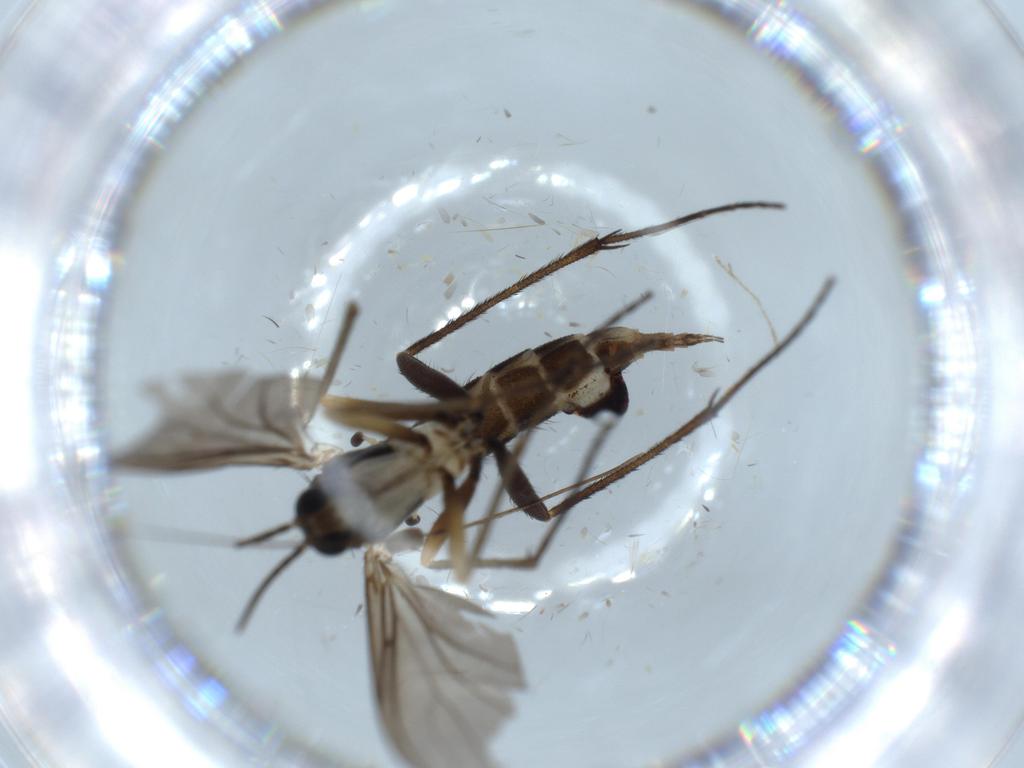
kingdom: Animalia
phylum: Arthropoda
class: Insecta
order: Diptera
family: Sciaridae
